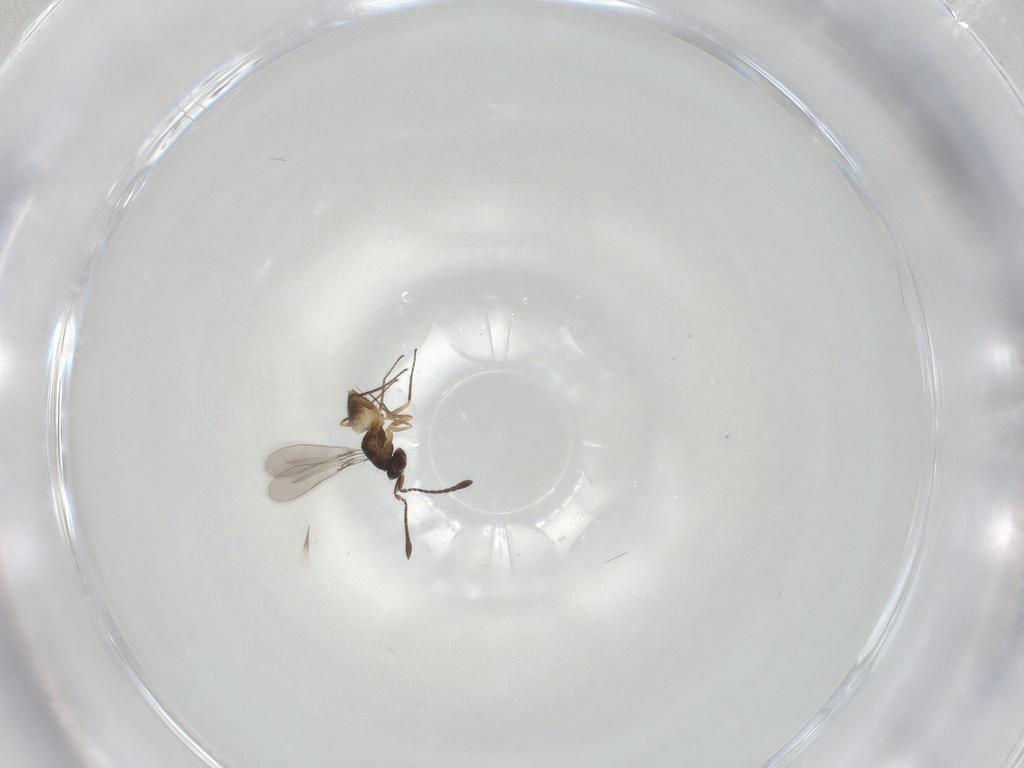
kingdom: Animalia
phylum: Arthropoda
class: Insecta
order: Hymenoptera
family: Mymaridae
